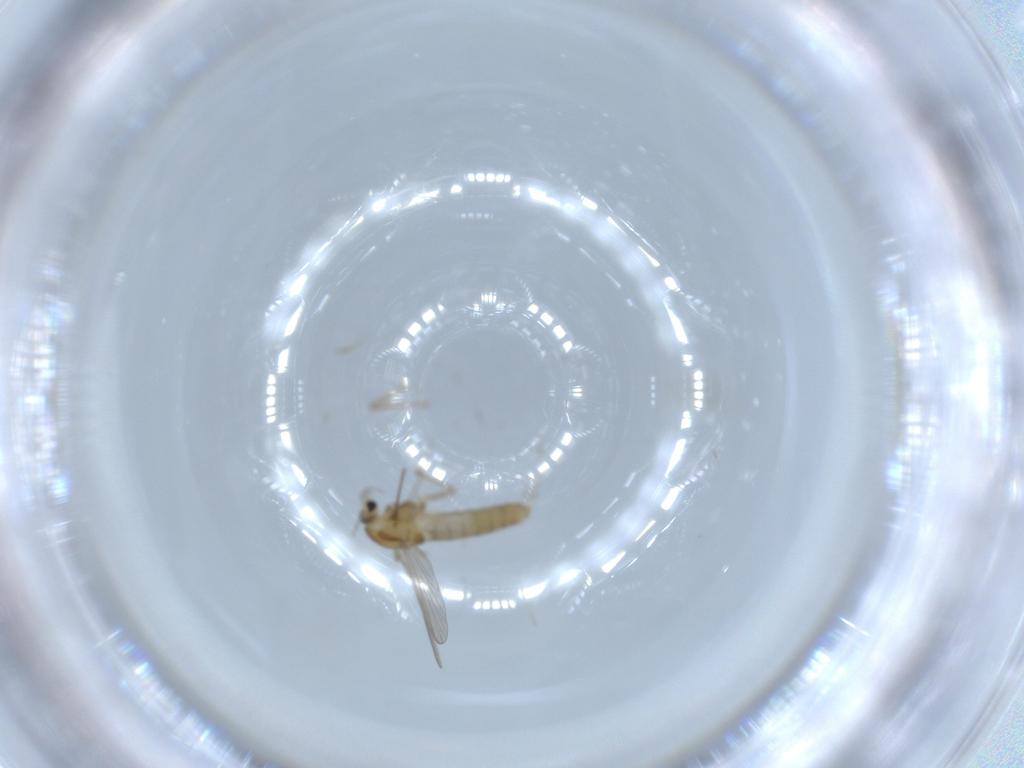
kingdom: Animalia
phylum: Arthropoda
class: Insecta
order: Diptera
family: Chironomidae
